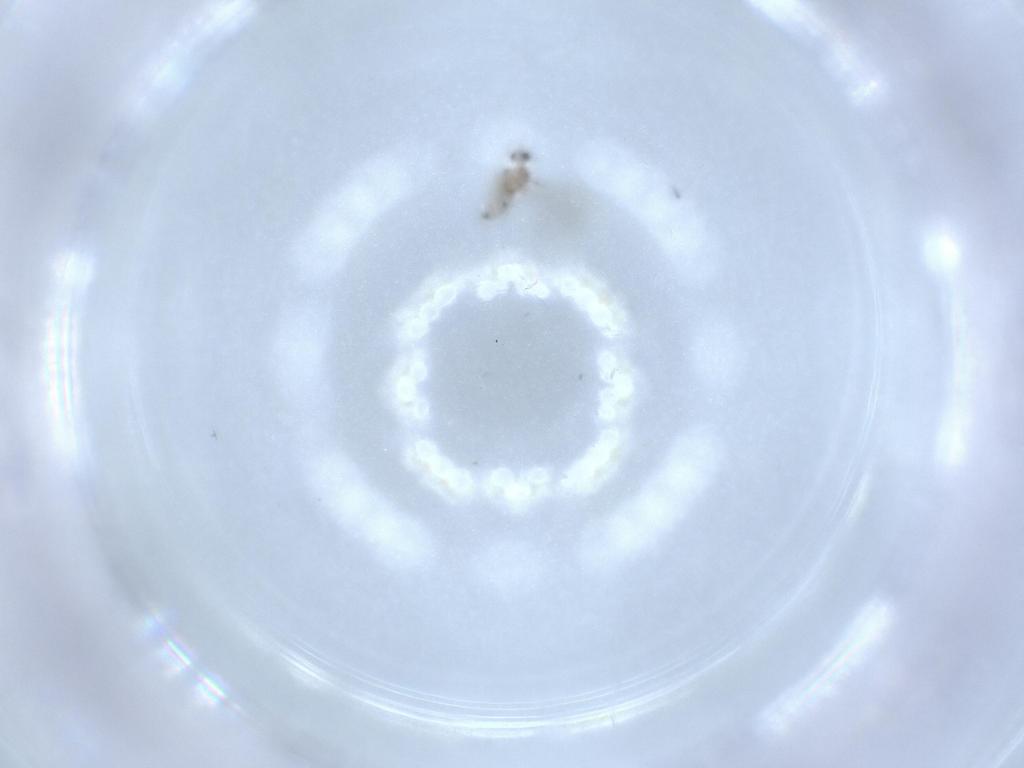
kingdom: Animalia
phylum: Arthropoda
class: Insecta
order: Diptera
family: Cecidomyiidae
